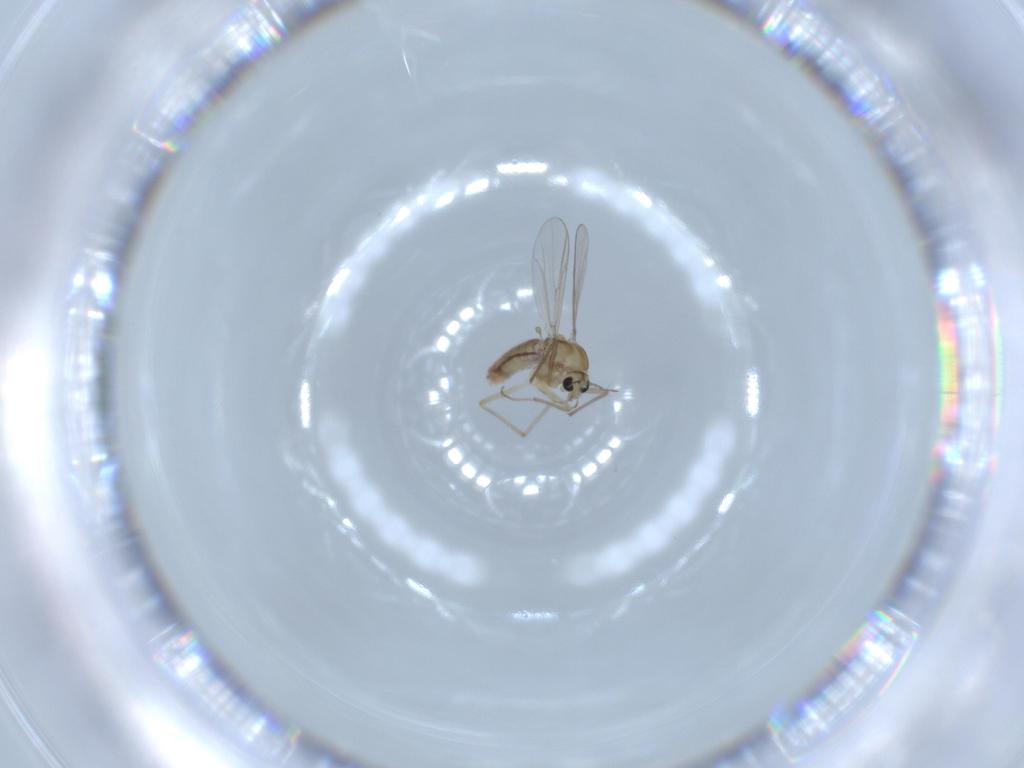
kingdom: Animalia
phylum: Arthropoda
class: Insecta
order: Diptera
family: Chironomidae
